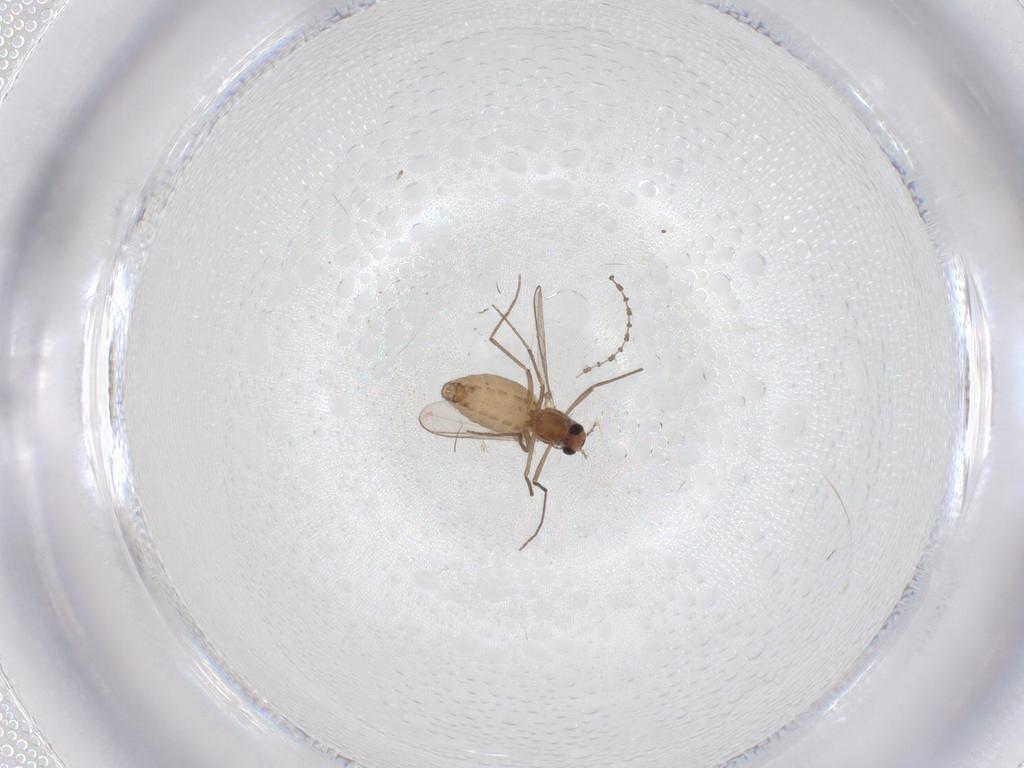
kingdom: Animalia
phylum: Arthropoda
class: Insecta
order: Diptera
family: Chironomidae
